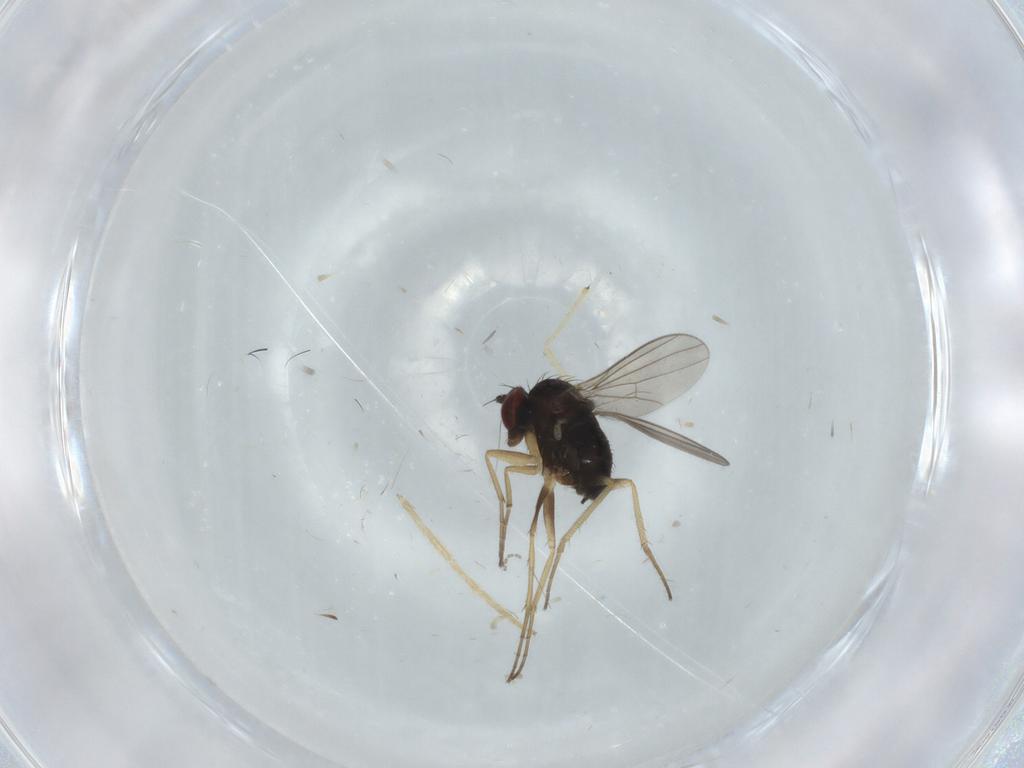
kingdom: Animalia
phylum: Arthropoda
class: Insecta
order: Diptera
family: Dolichopodidae
